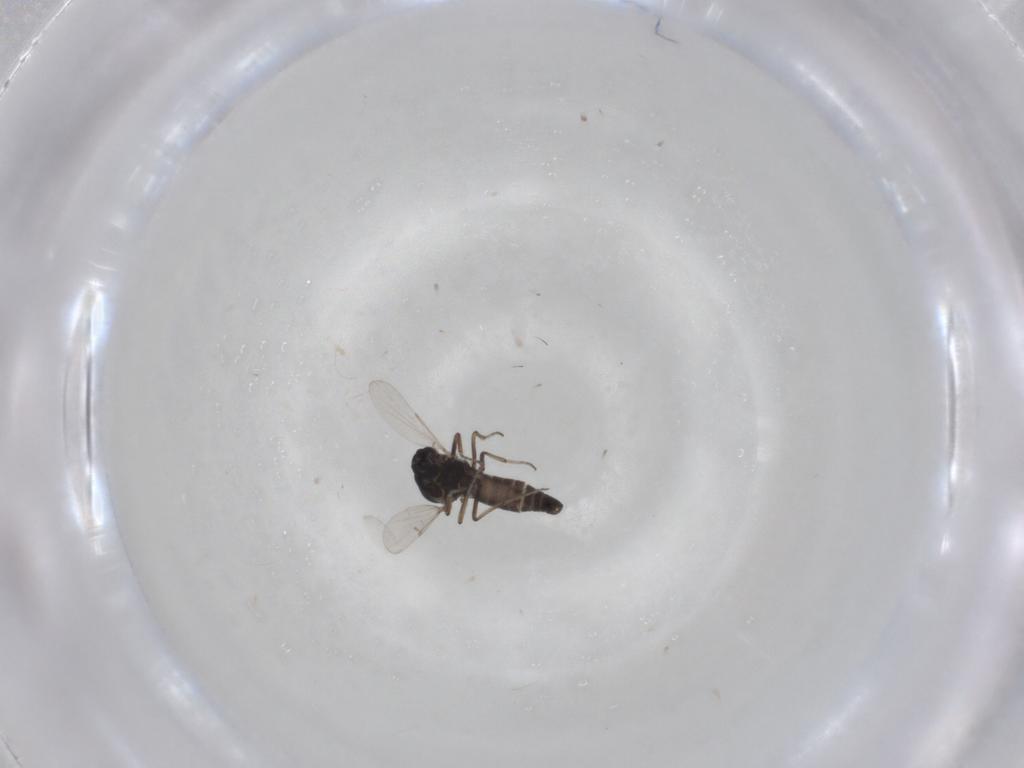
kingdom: Animalia
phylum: Arthropoda
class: Insecta
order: Diptera
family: Ceratopogonidae
